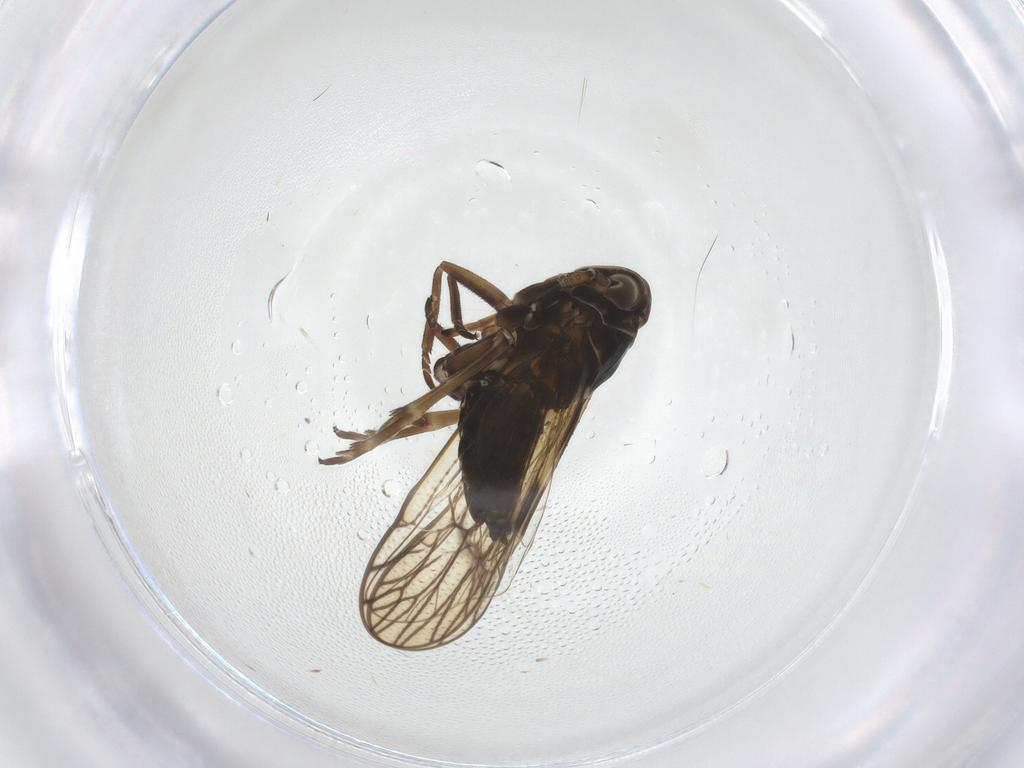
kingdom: Animalia
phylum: Arthropoda
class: Insecta
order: Hemiptera
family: Delphacidae
